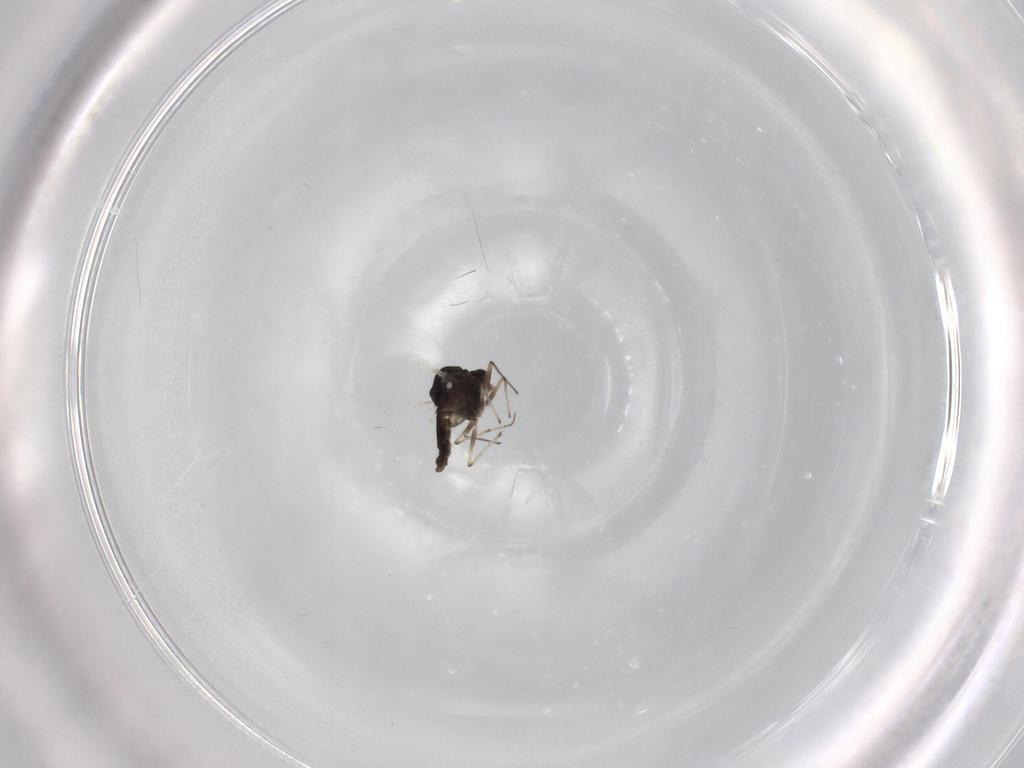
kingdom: Animalia
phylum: Arthropoda
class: Insecta
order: Diptera
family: Chironomidae
